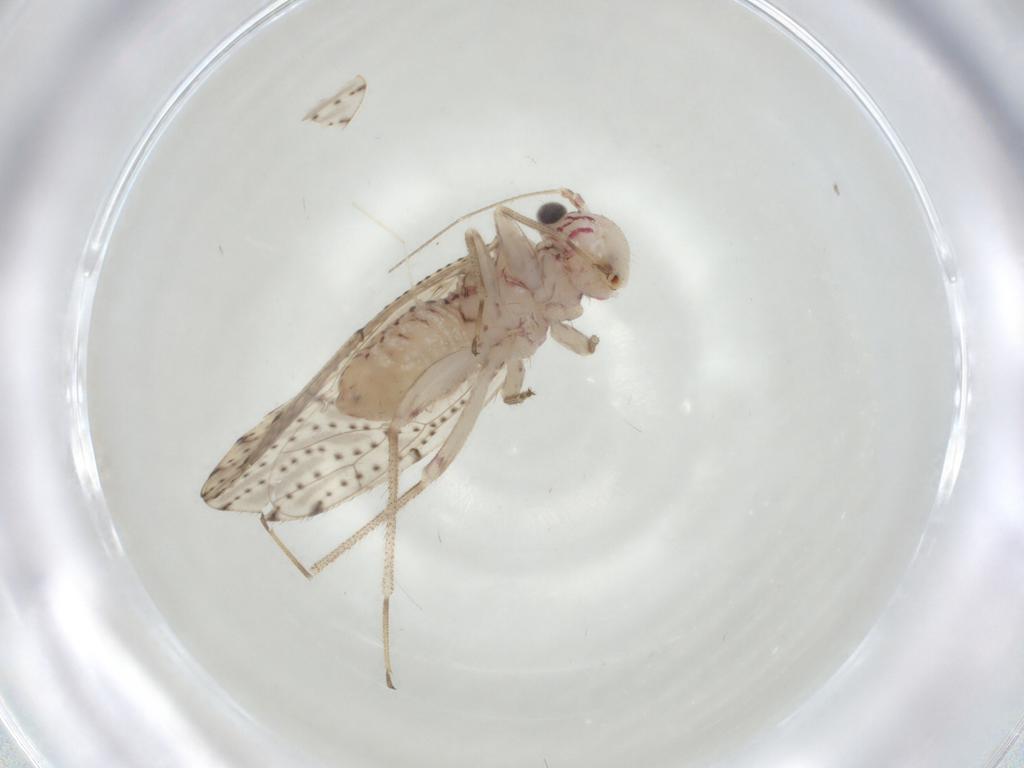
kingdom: Animalia
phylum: Arthropoda
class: Insecta
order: Psocodea
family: Lachesillidae
